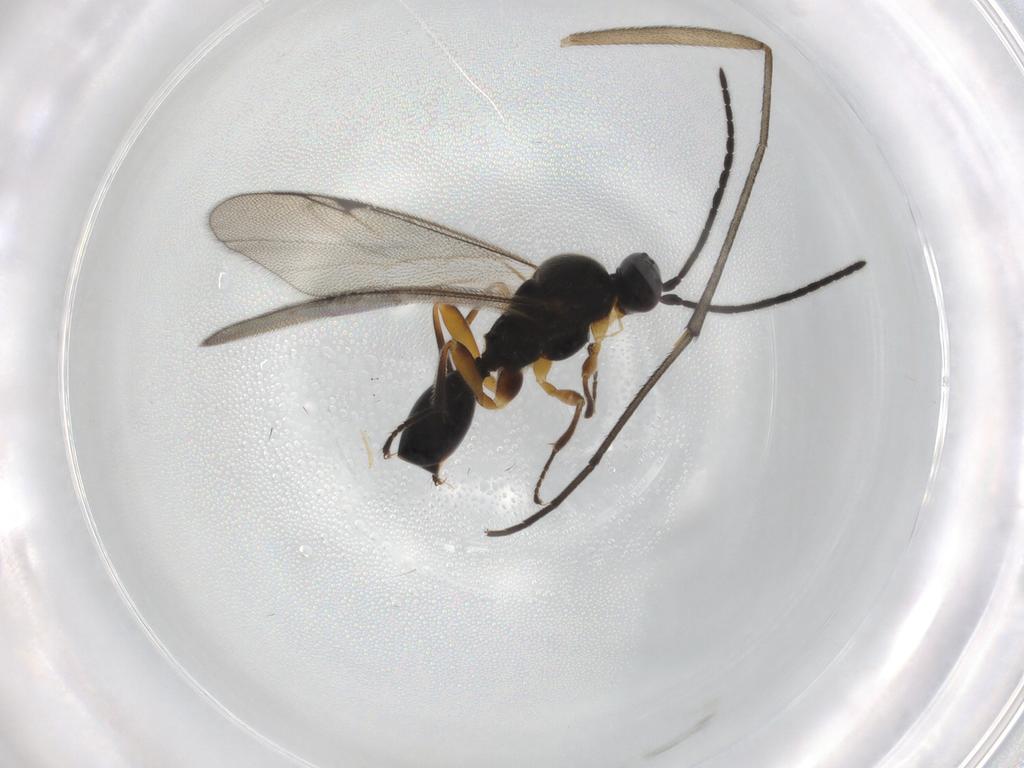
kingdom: Animalia
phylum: Arthropoda
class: Insecta
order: Hymenoptera
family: Proctotrupidae
